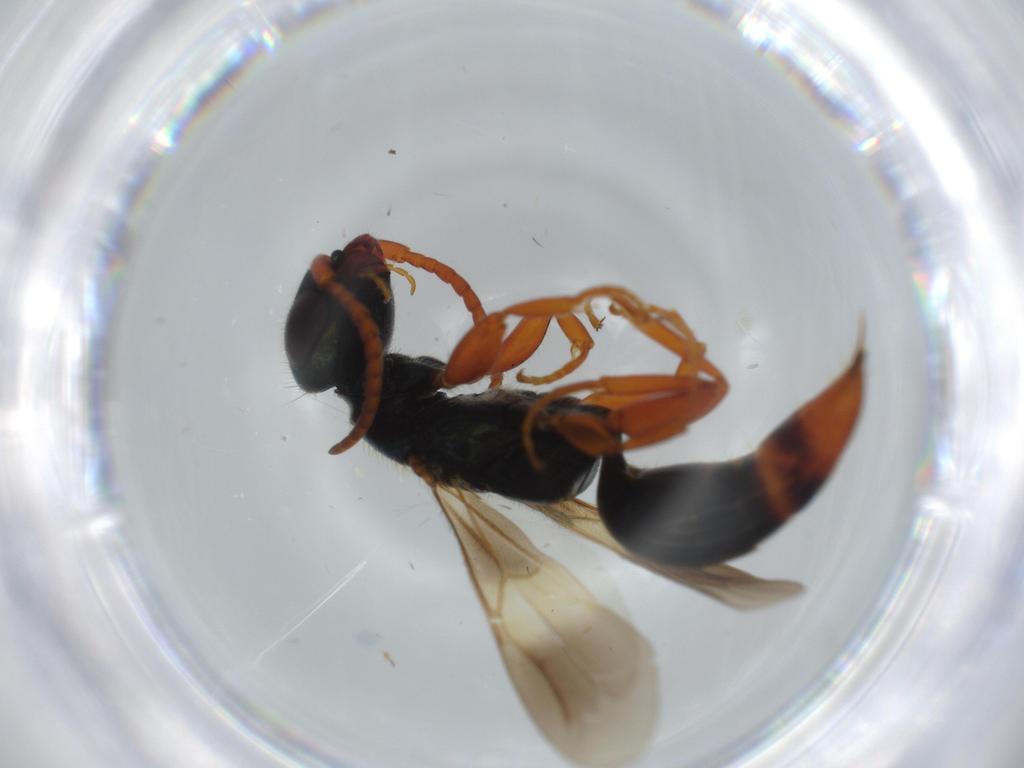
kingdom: Animalia
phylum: Arthropoda
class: Insecta
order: Hymenoptera
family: Bethylidae
